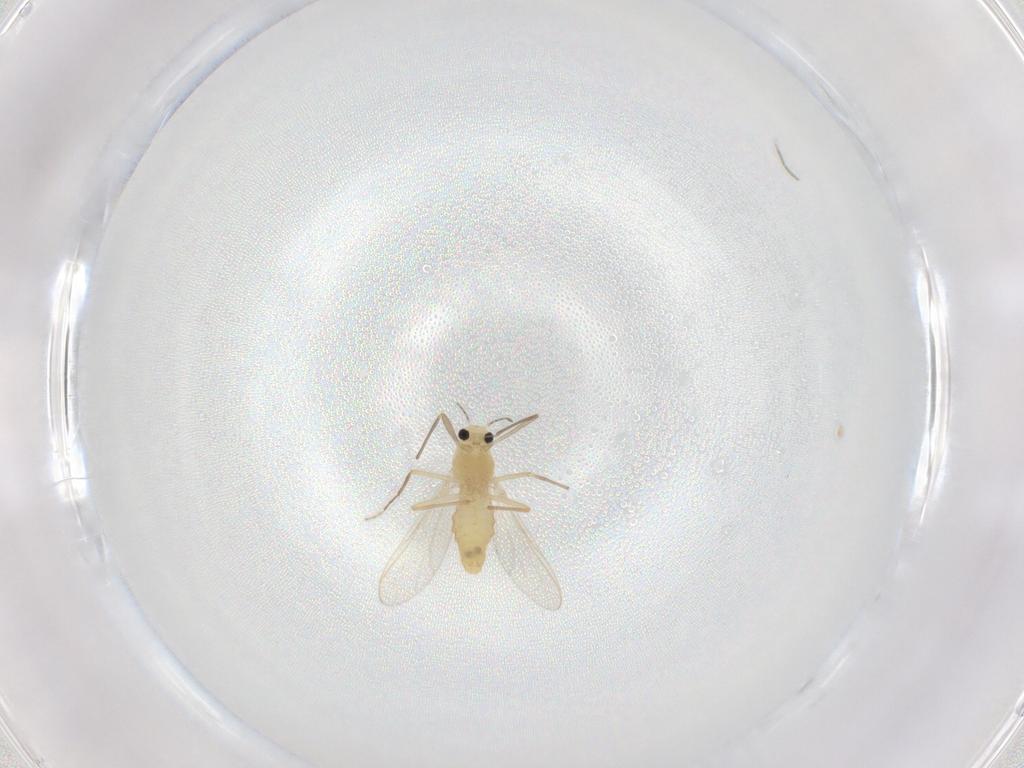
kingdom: Animalia
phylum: Arthropoda
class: Insecta
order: Diptera
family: Chironomidae
